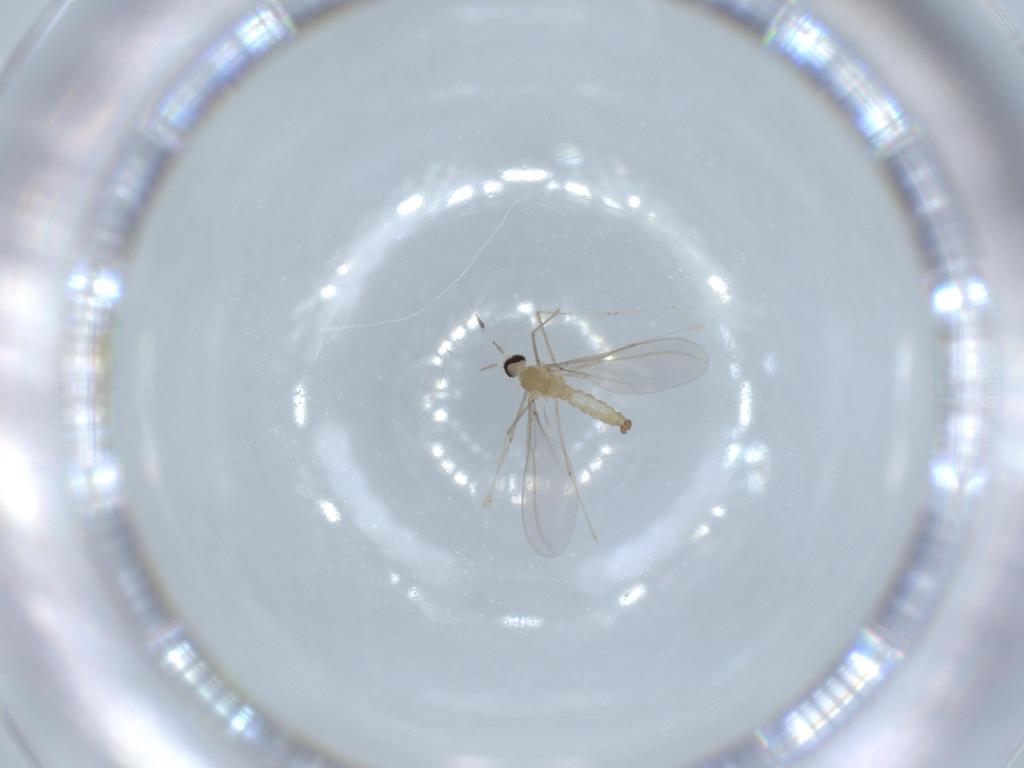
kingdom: Animalia
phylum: Arthropoda
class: Insecta
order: Diptera
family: Cecidomyiidae
